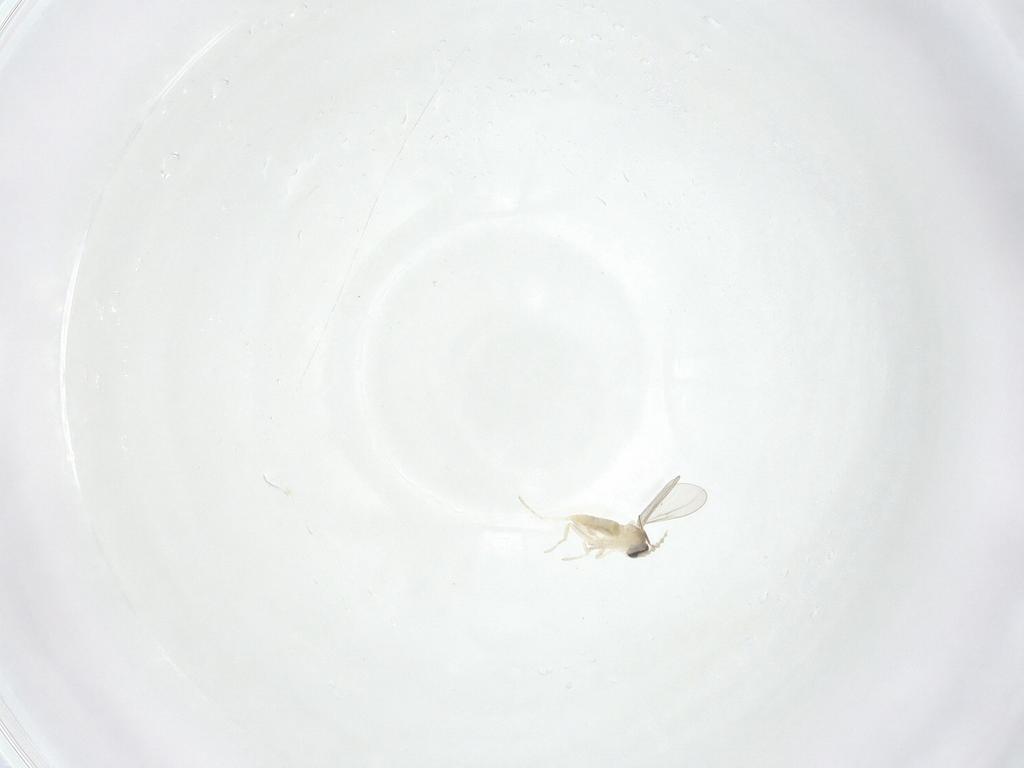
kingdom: Animalia
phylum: Arthropoda
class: Insecta
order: Diptera
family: Cecidomyiidae
